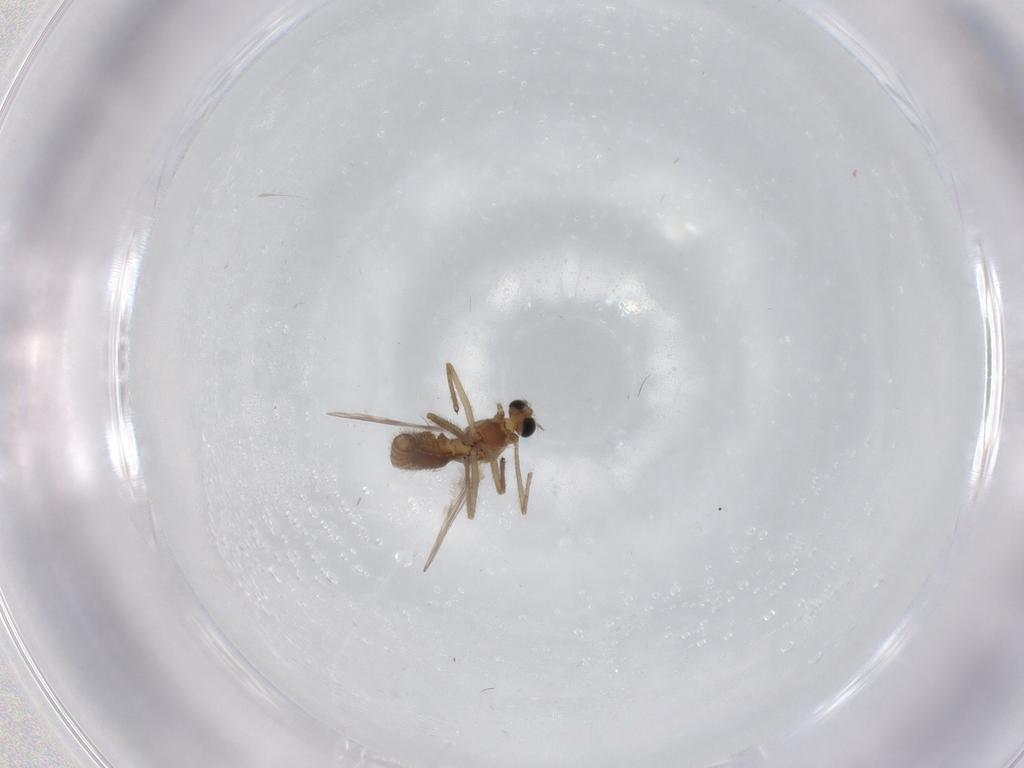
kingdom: Animalia
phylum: Arthropoda
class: Insecta
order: Diptera
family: Chironomidae
